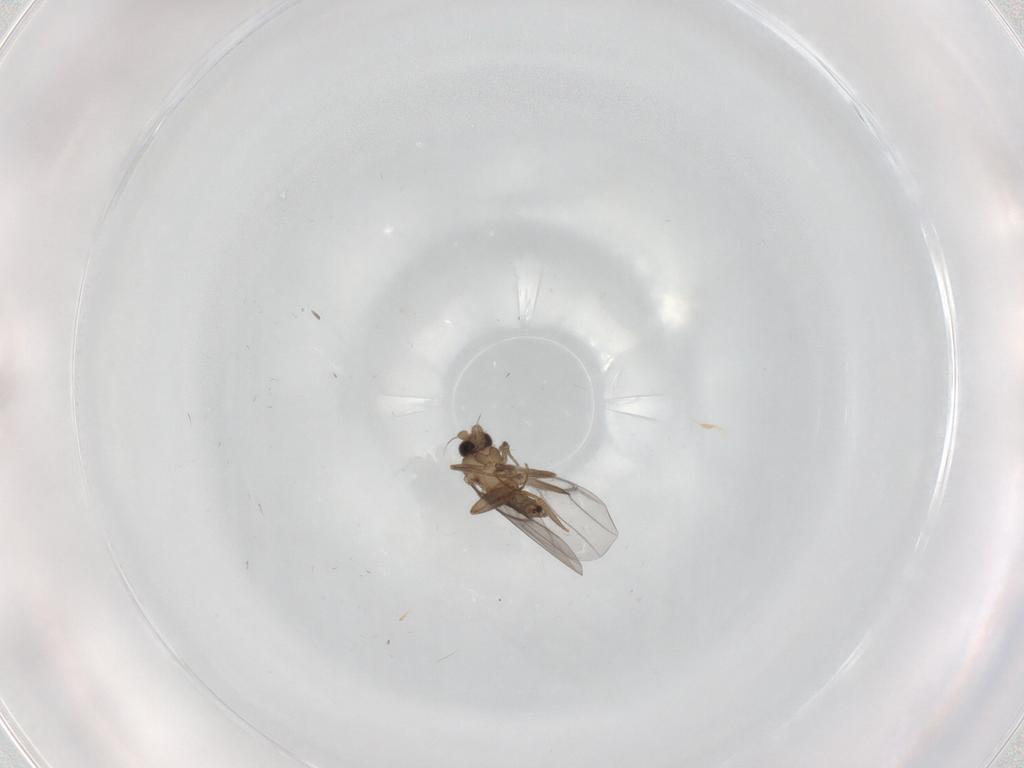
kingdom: Animalia
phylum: Arthropoda
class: Insecta
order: Diptera
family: Cecidomyiidae
